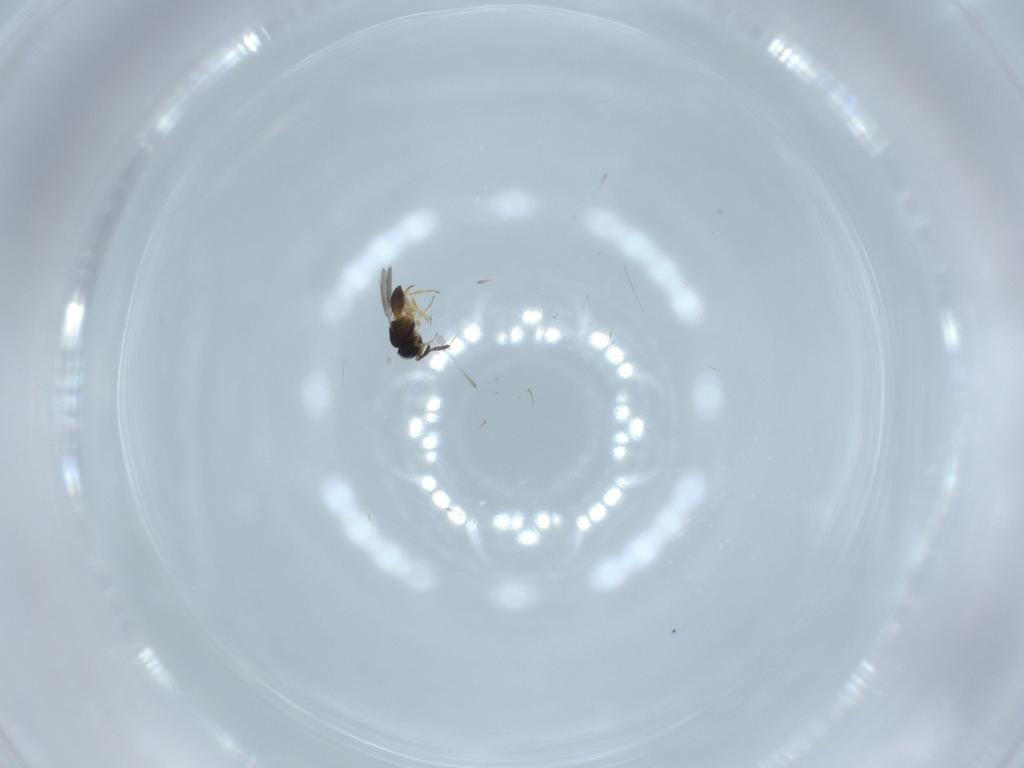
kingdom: Animalia
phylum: Arthropoda
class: Insecta
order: Hymenoptera
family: Scelionidae
